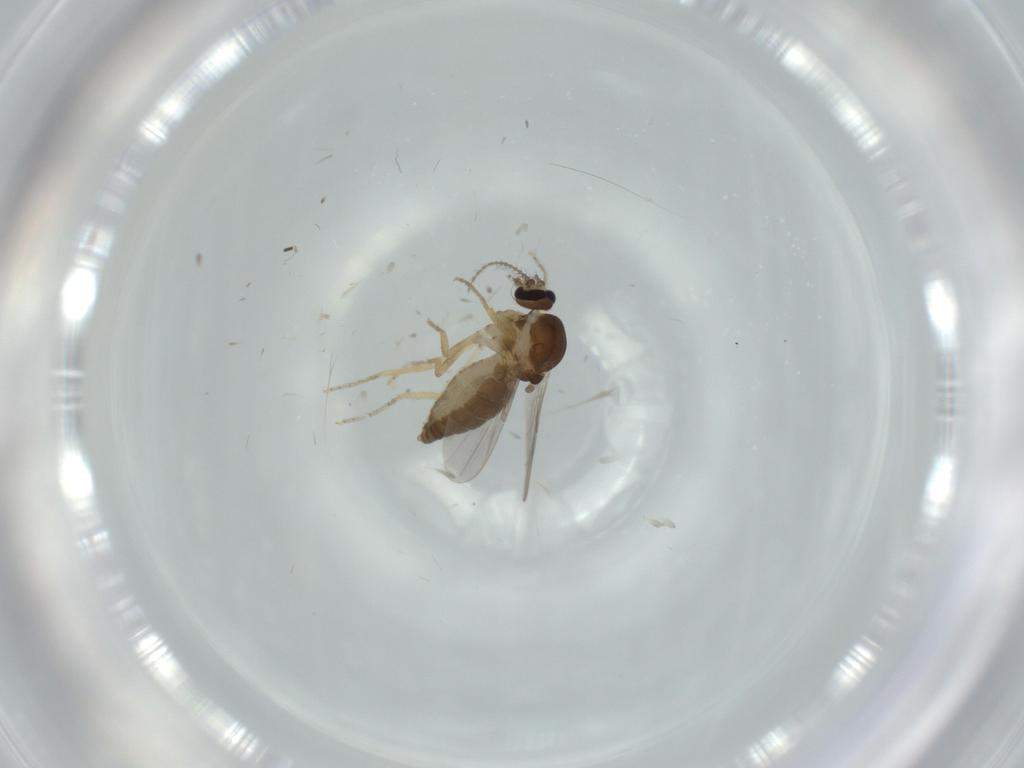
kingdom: Animalia
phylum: Arthropoda
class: Insecta
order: Diptera
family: Ceratopogonidae
